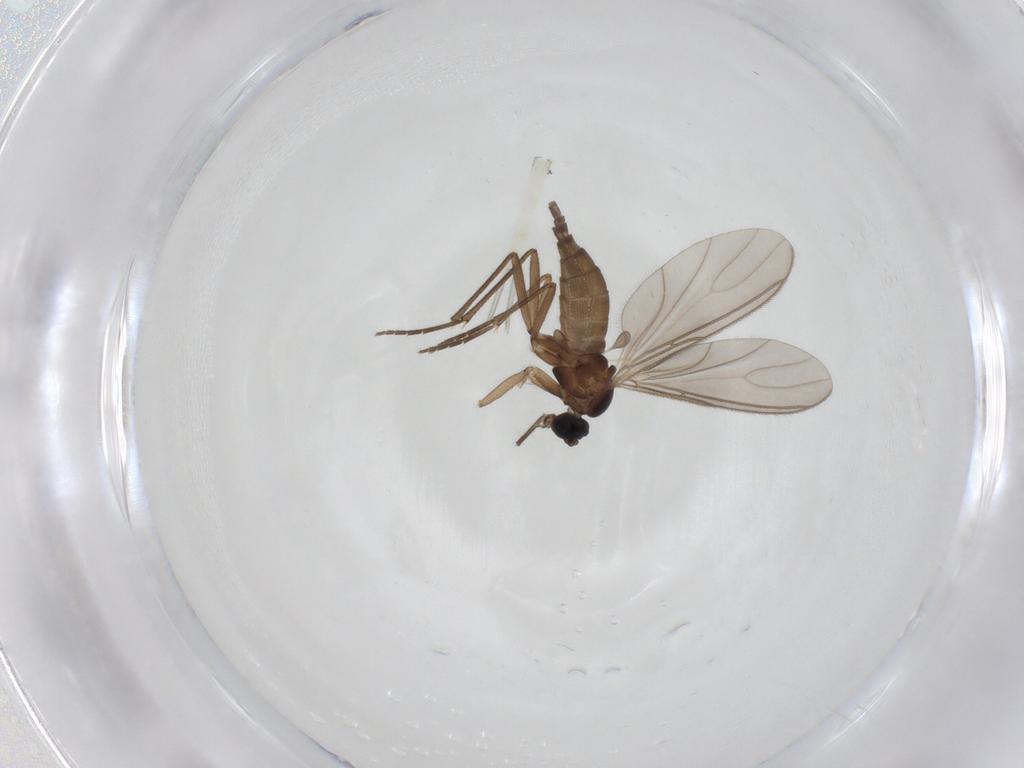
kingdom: Animalia
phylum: Arthropoda
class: Insecta
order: Diptera
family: Sciaridae
